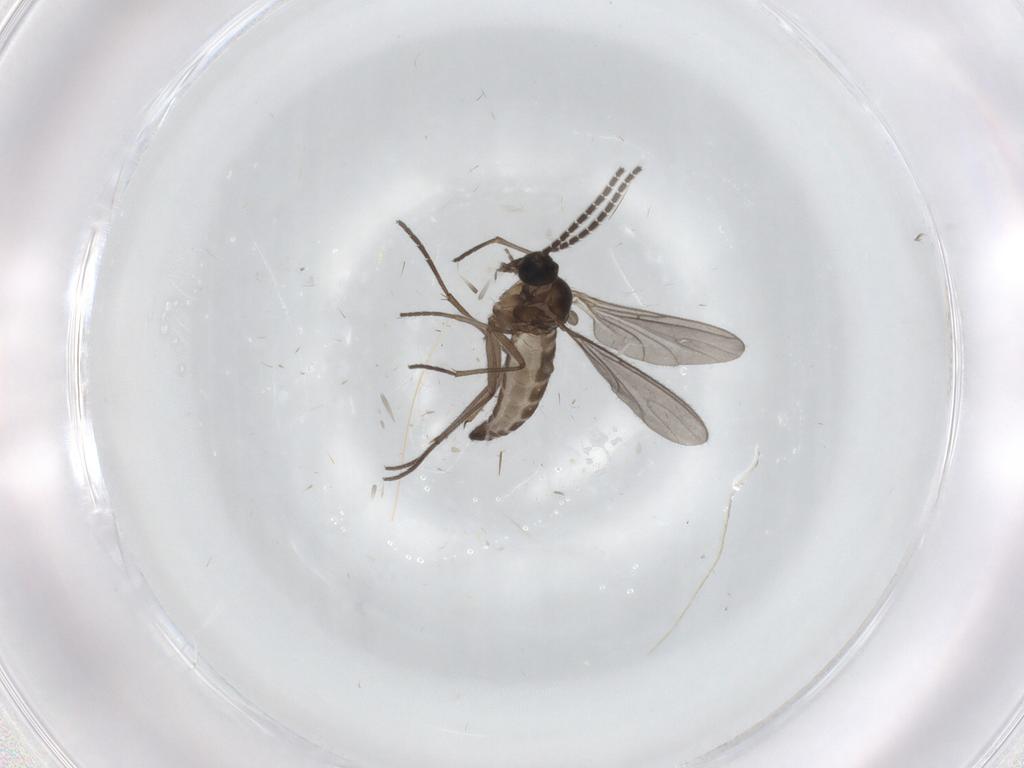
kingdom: Animalia
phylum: Arthropoda
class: Insecta
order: Diptera
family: Sciaridae
